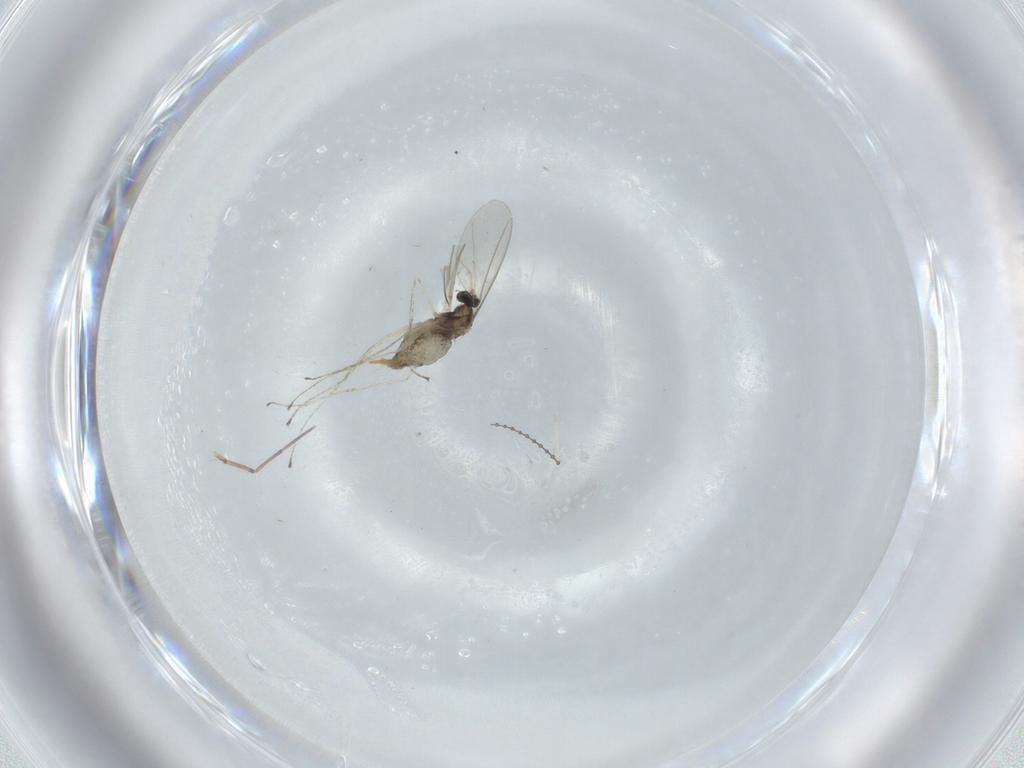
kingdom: Animalia
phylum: Arthropoda
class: Insecta
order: Diptera
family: Cecidomyiidae
